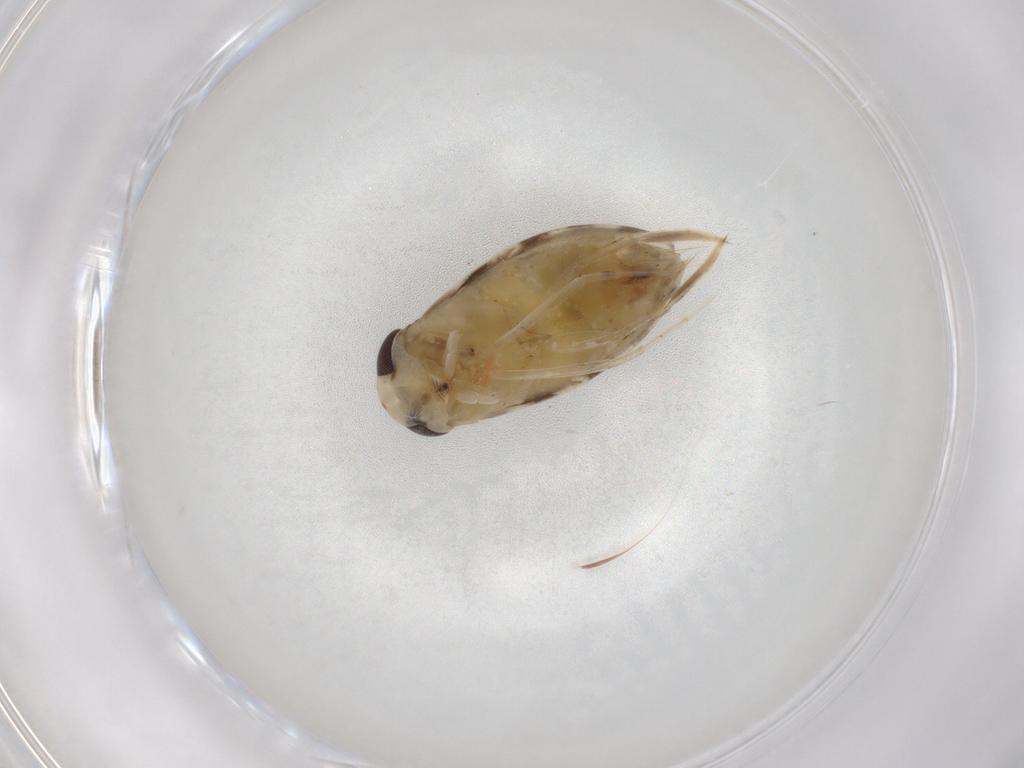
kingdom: Animalia
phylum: Arthropoda
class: Insecta
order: Hemiptera
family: Corixidae
